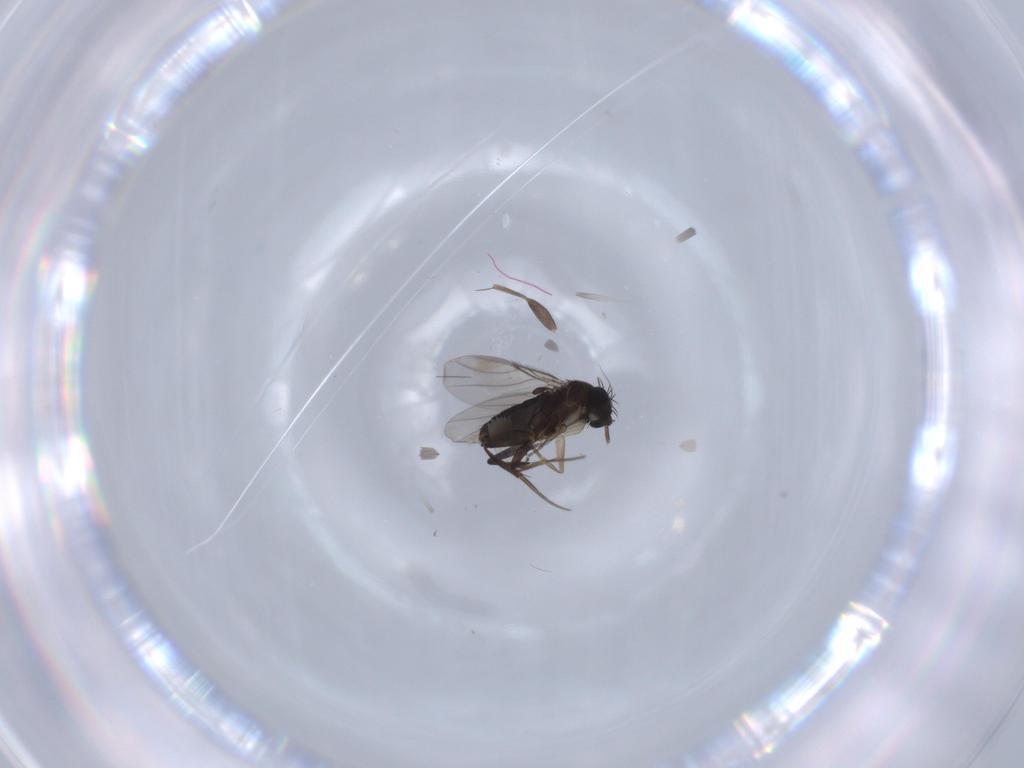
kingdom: Animalia
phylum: Arthropoda
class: Insecta
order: Diptera
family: Phoridae
